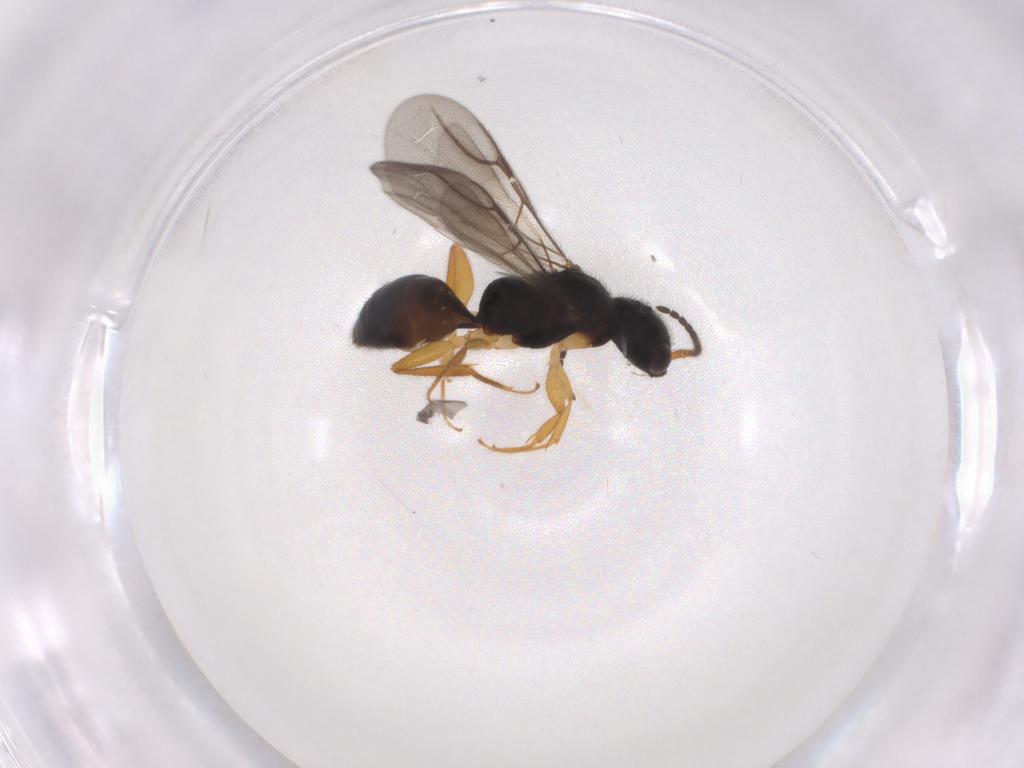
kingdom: Animalia
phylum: Arthropoda
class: Insecta
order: Hymenoptera
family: Bethylidae
